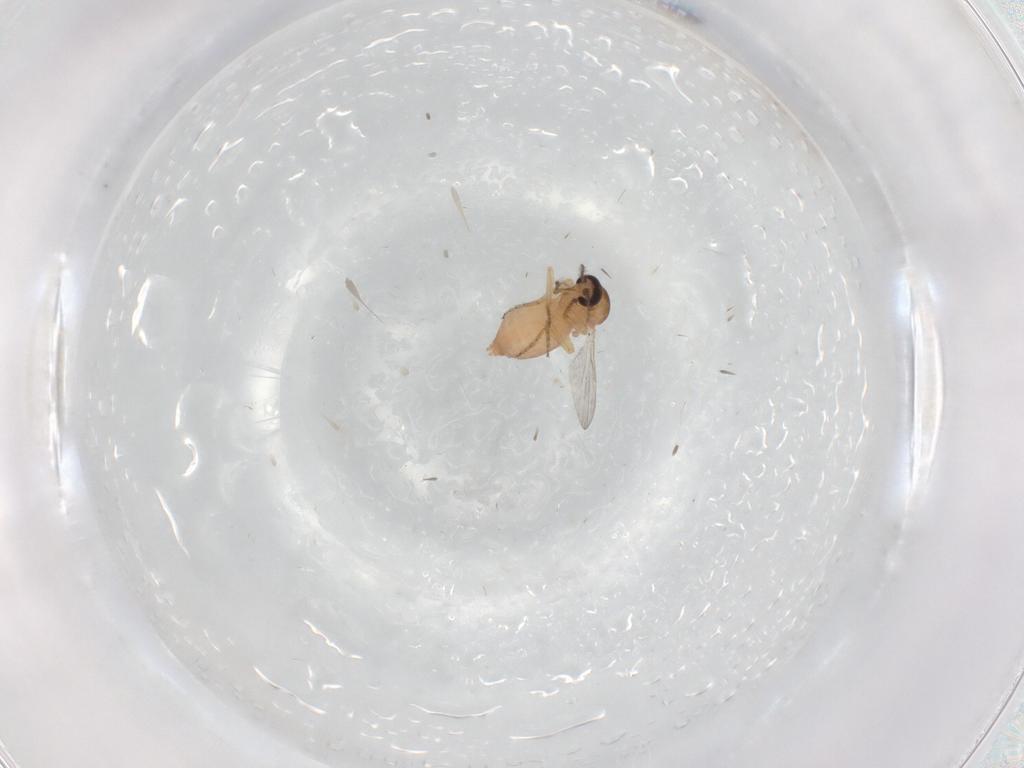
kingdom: Animalia
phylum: Arthropoda
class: Insecta
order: Diptera
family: Ceratopogonidae
